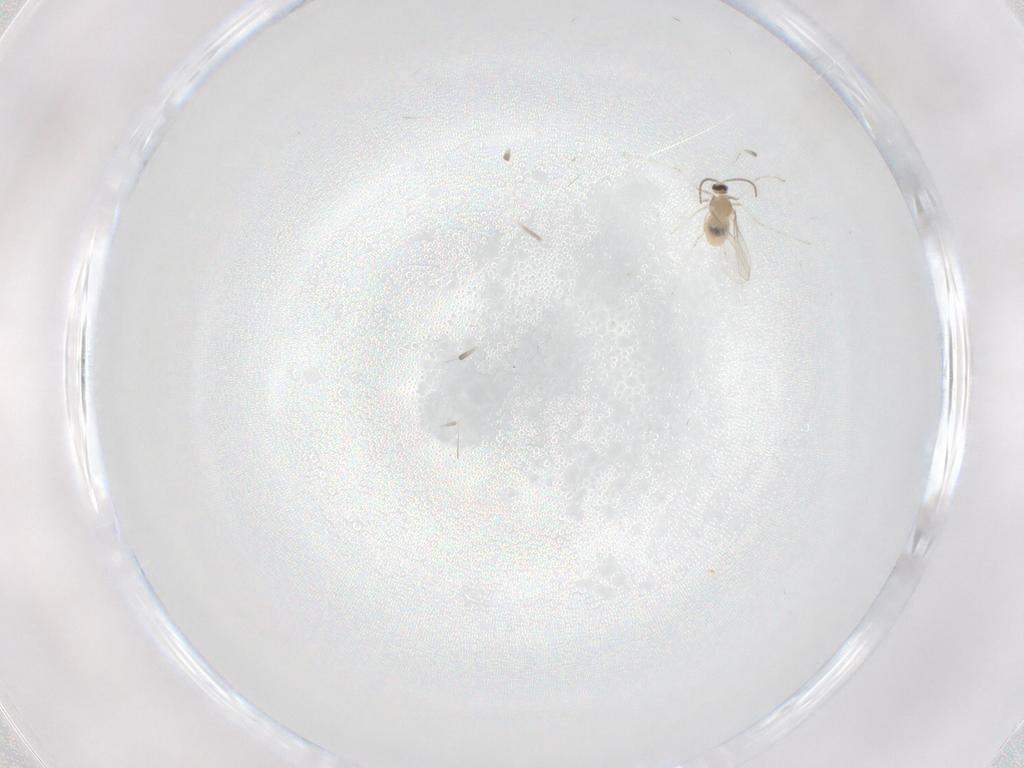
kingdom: Animalia
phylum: Arthropoda
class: Insecta
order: Diptera
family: Cecidomyiidae
